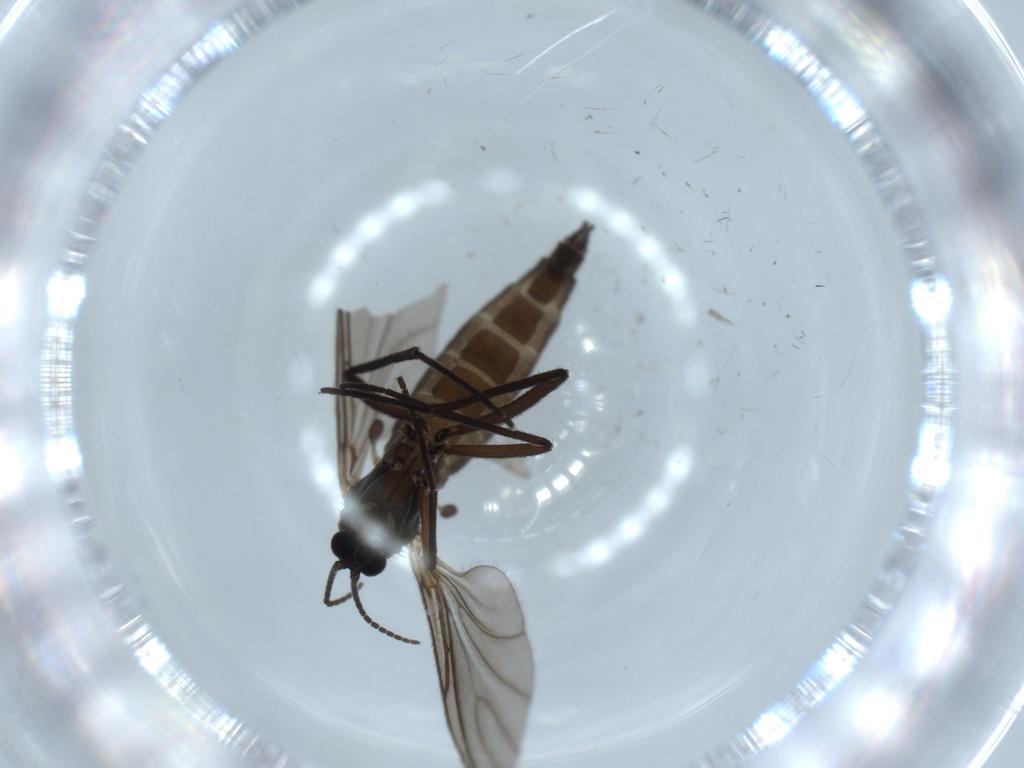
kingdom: Animalia
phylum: Arthropoda
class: Insecta
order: Diptera
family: Sciaridae
